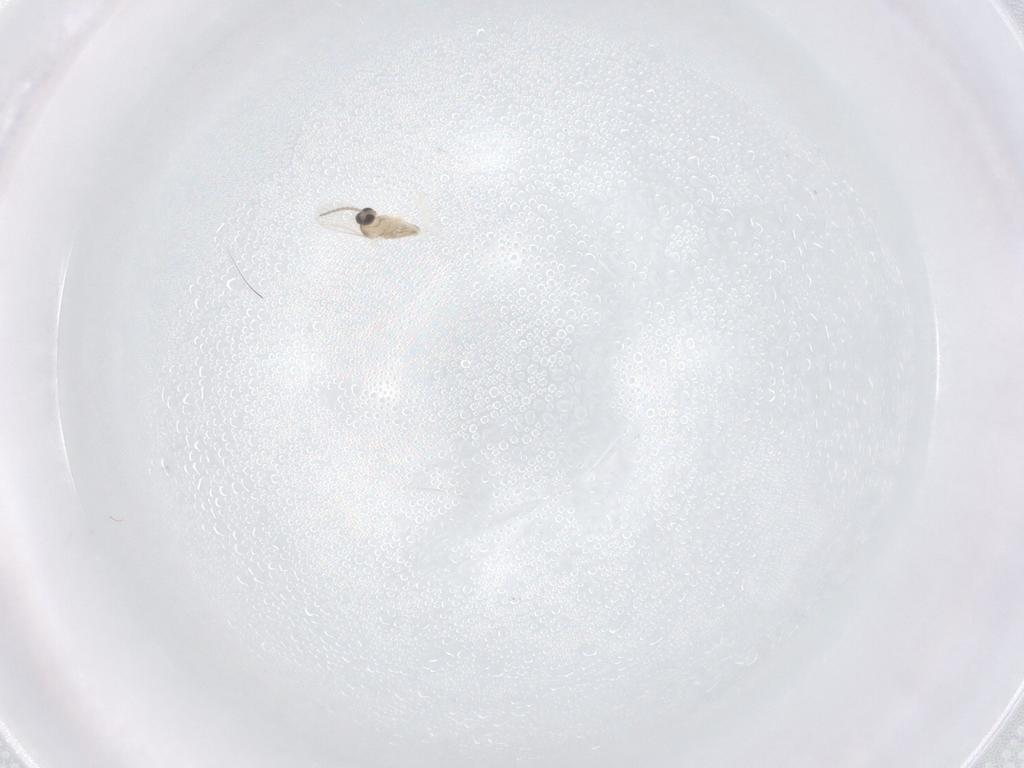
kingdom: Animalia
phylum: Arthropoda
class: Insecta
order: Diptera
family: Cecidomyiidae
